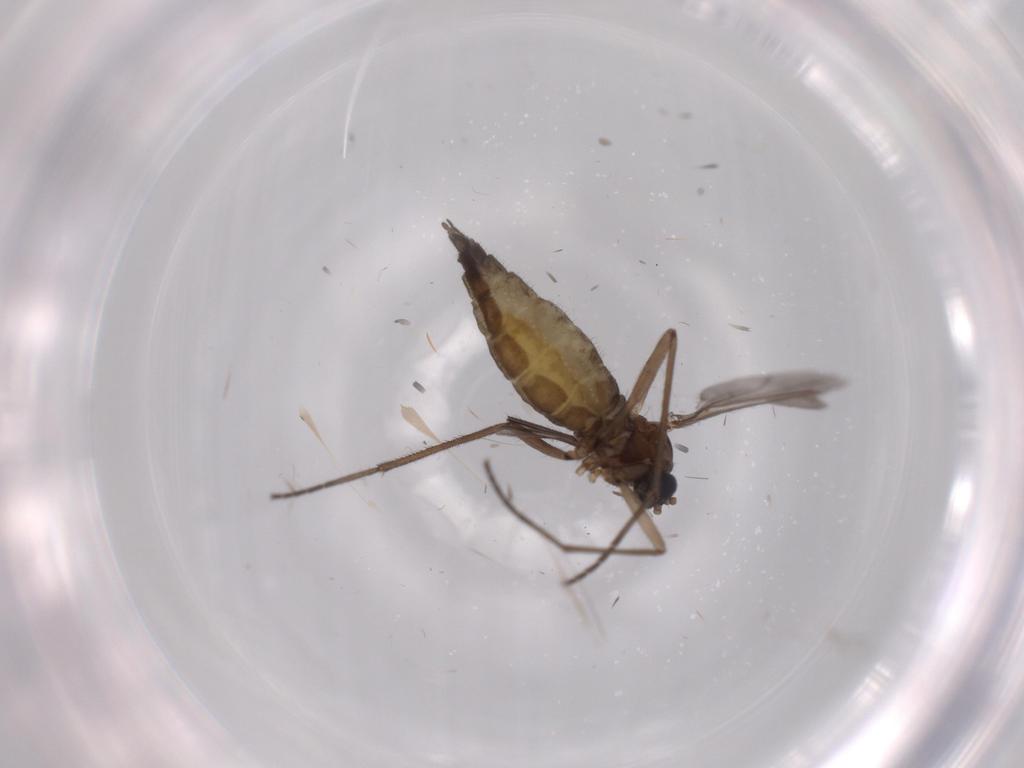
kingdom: Animalia
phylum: Arthropoda
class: Insecta
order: Diptera
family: Sciaridae
